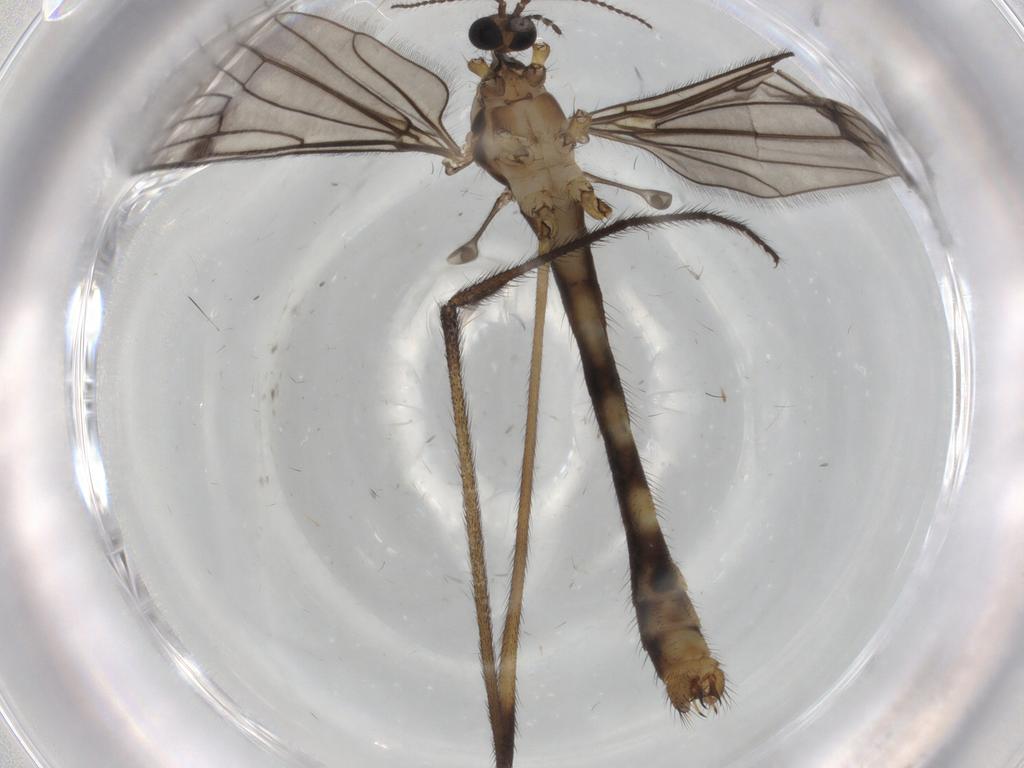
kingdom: Animalia
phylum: Arthropoda
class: Insecta
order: Diptera
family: Limoniidae
